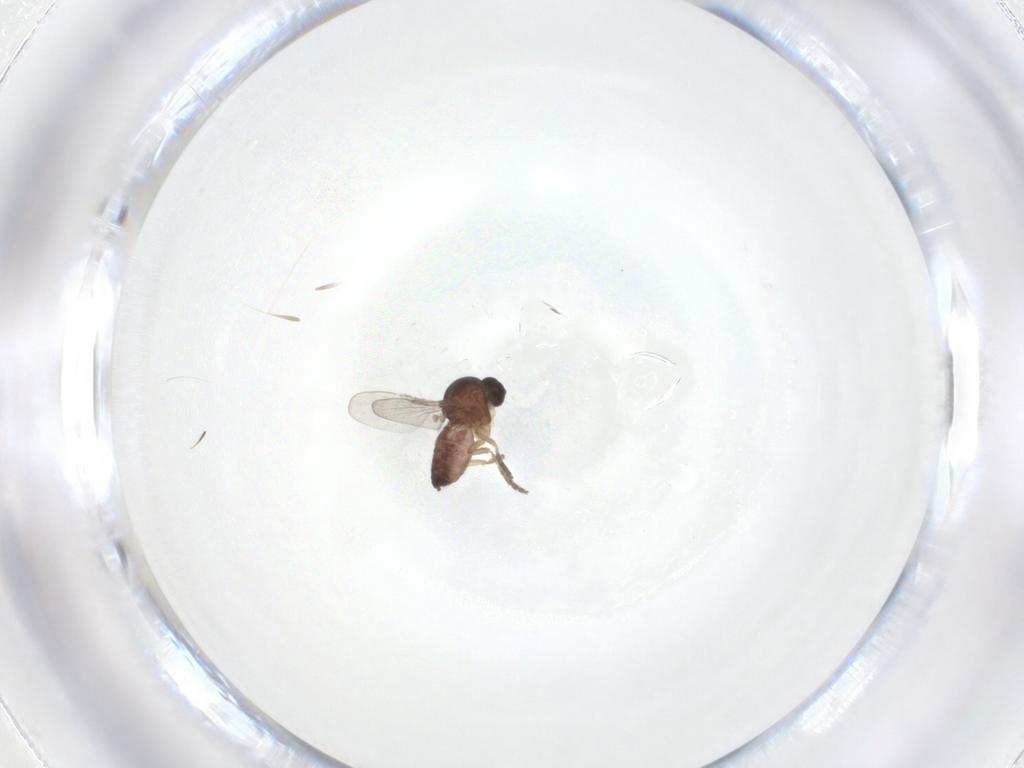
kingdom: Animalia
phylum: Arthropoda
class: Insecta
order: Diptera
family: Ceratopogonidae
